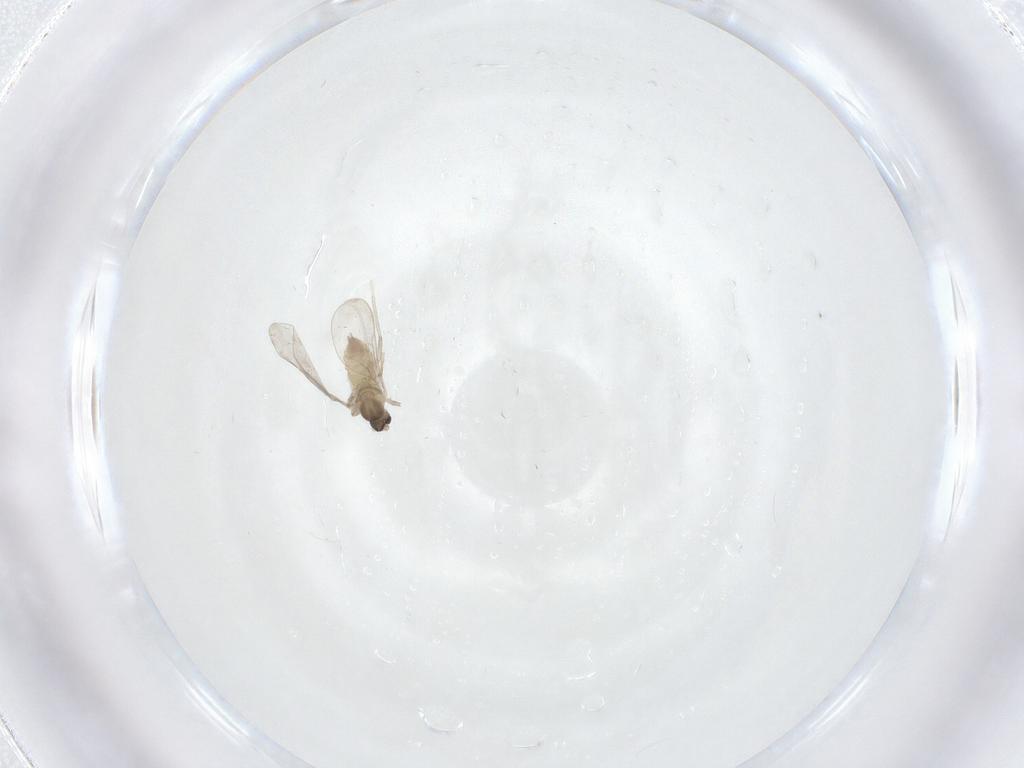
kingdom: Animalia
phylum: Arthropoda
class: Insecta
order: Diptera
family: Cecidomyiidae
